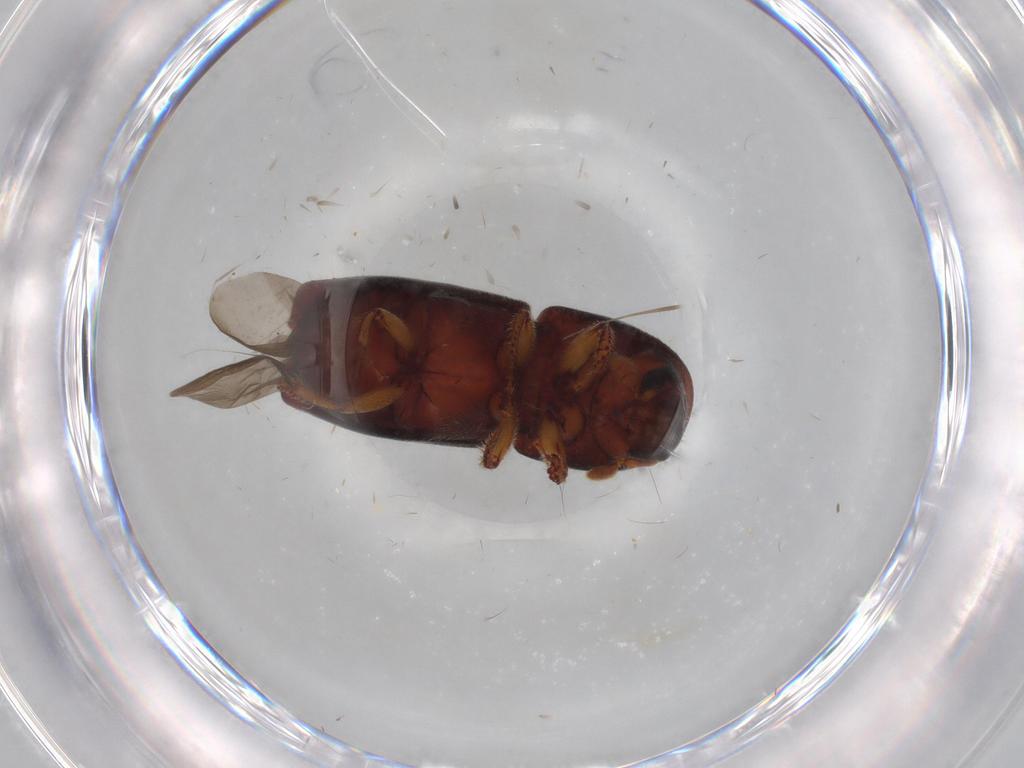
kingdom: Animalia
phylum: Arthropoda
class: Insecta
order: Coleoptera
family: Curculionidae
